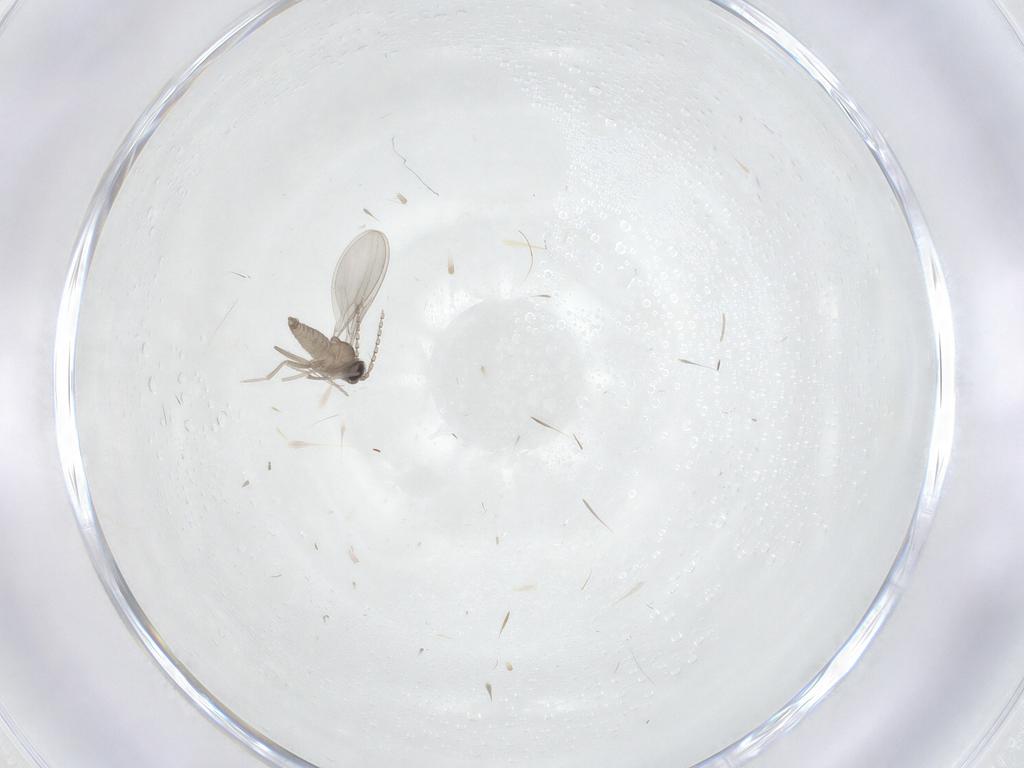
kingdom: Animalia
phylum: Arthropoda
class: Insecta
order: Diptera
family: Cecidomyiidae
